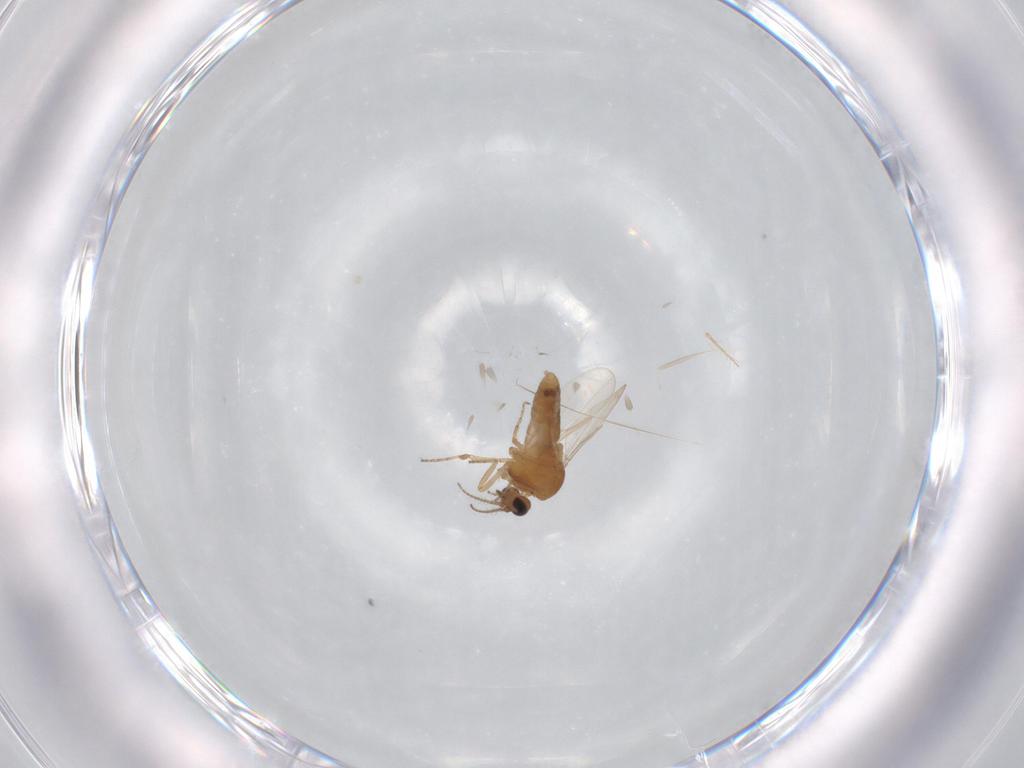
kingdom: Animalia
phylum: Arthropoda
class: Insecta
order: Diptera
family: Ceratopogonidae
